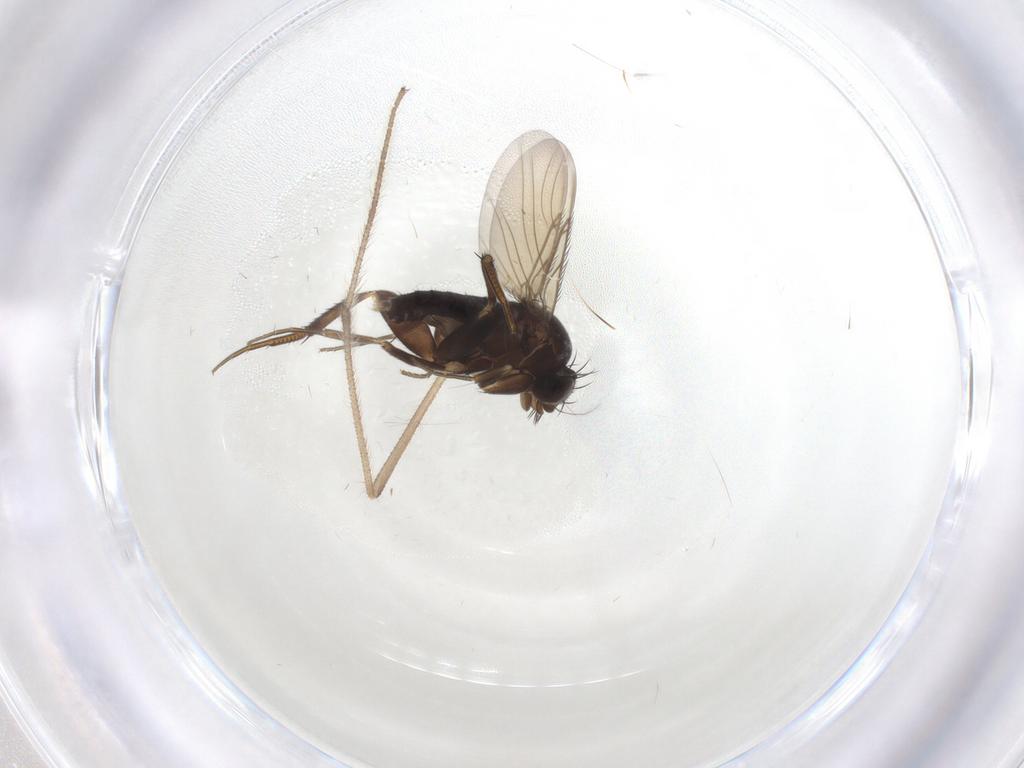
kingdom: Animalia
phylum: Arthropoda
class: Insecta
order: Diptera
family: Phoridae
